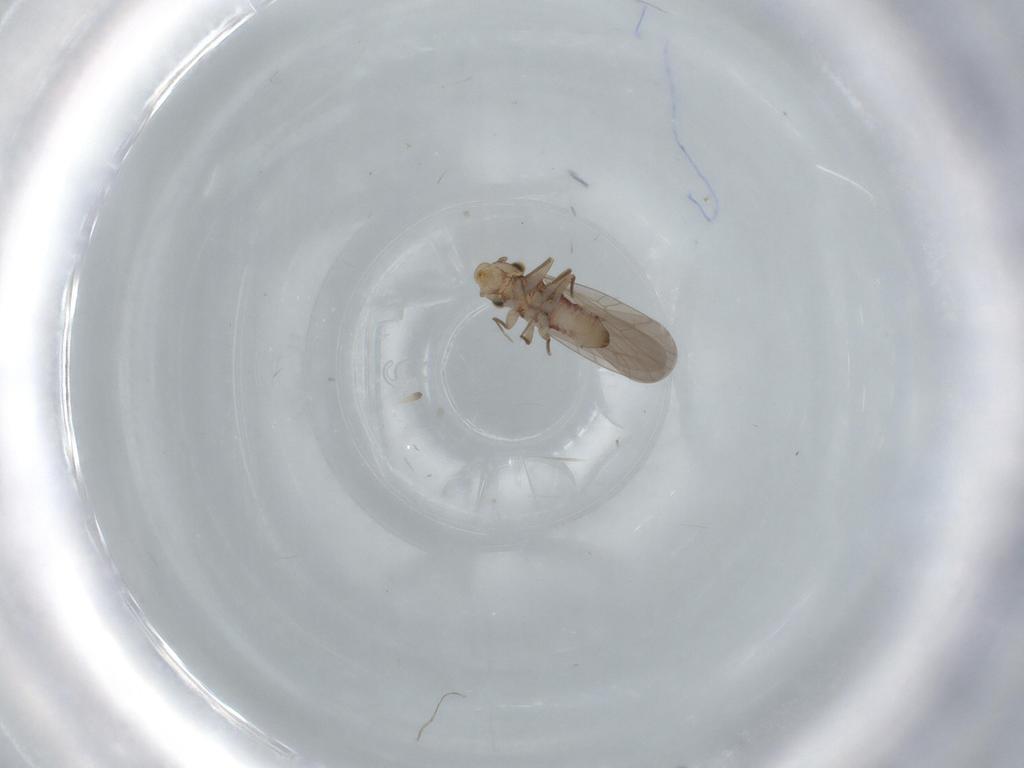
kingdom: Animalia
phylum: Arthropoda
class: Insecta
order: Psocodea
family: Lepidopsocidae
